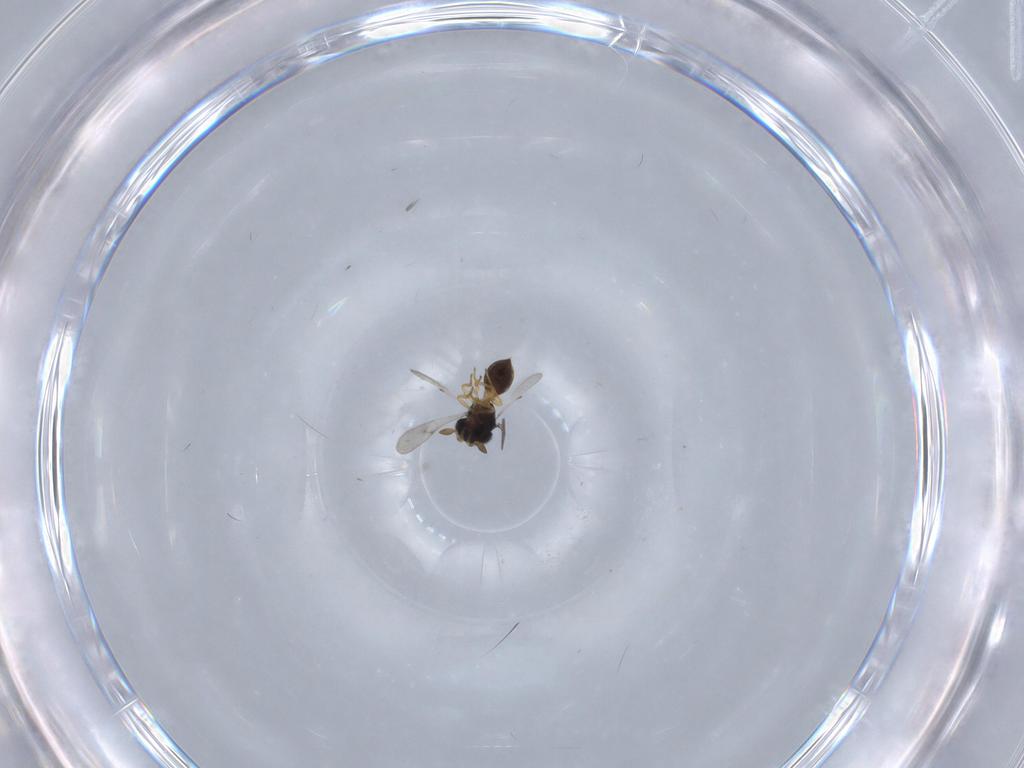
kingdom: Animalia
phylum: Arthropoda
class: Insecta
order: Hymenoptera
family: Scelionidae
